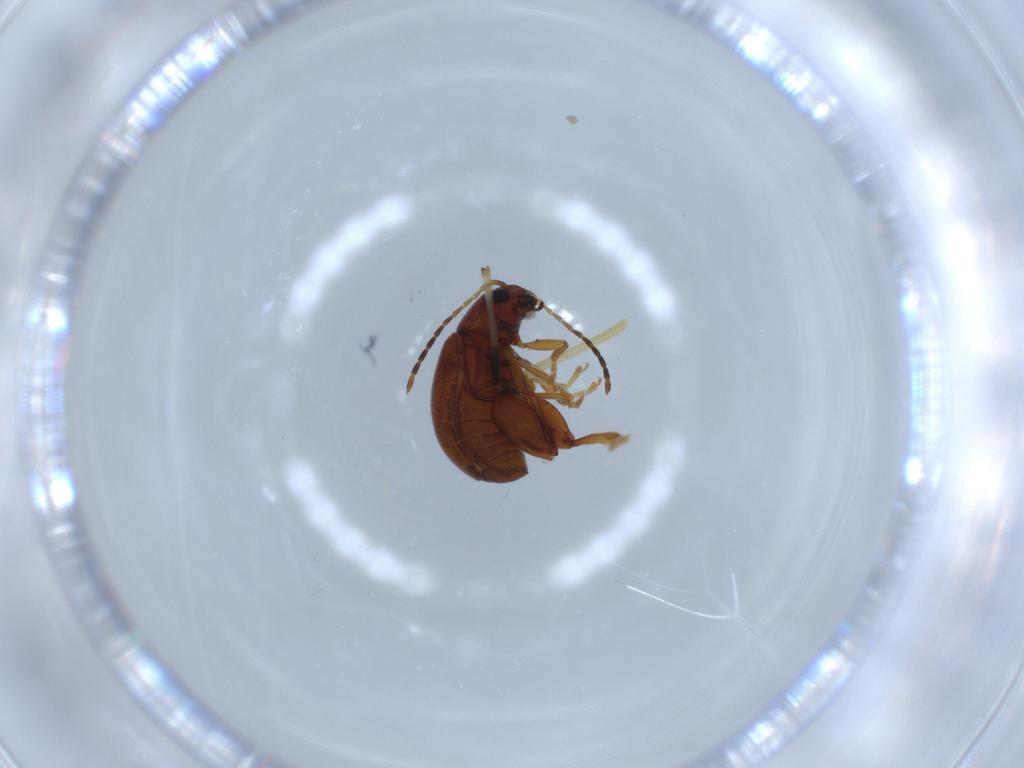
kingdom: Animalia
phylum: Arthropoda
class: Insecta
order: Coleoptera
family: Chrysomelidae
